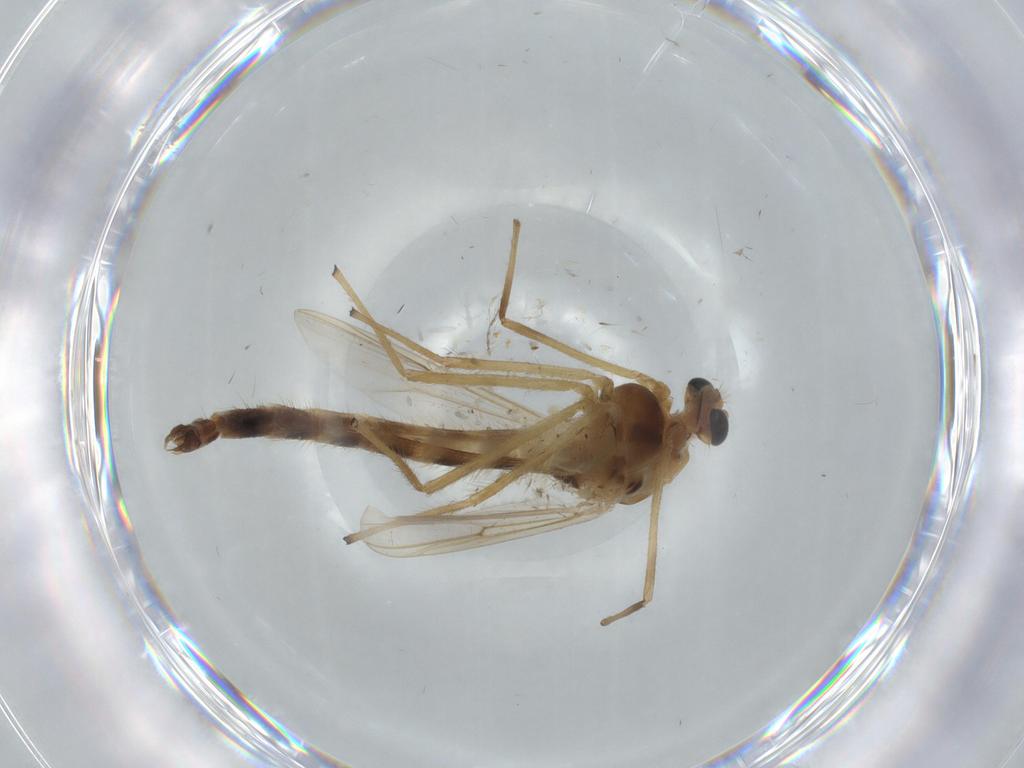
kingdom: Animalia
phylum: Arthropoda
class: Insecta
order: Diptera
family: Chironomidae
